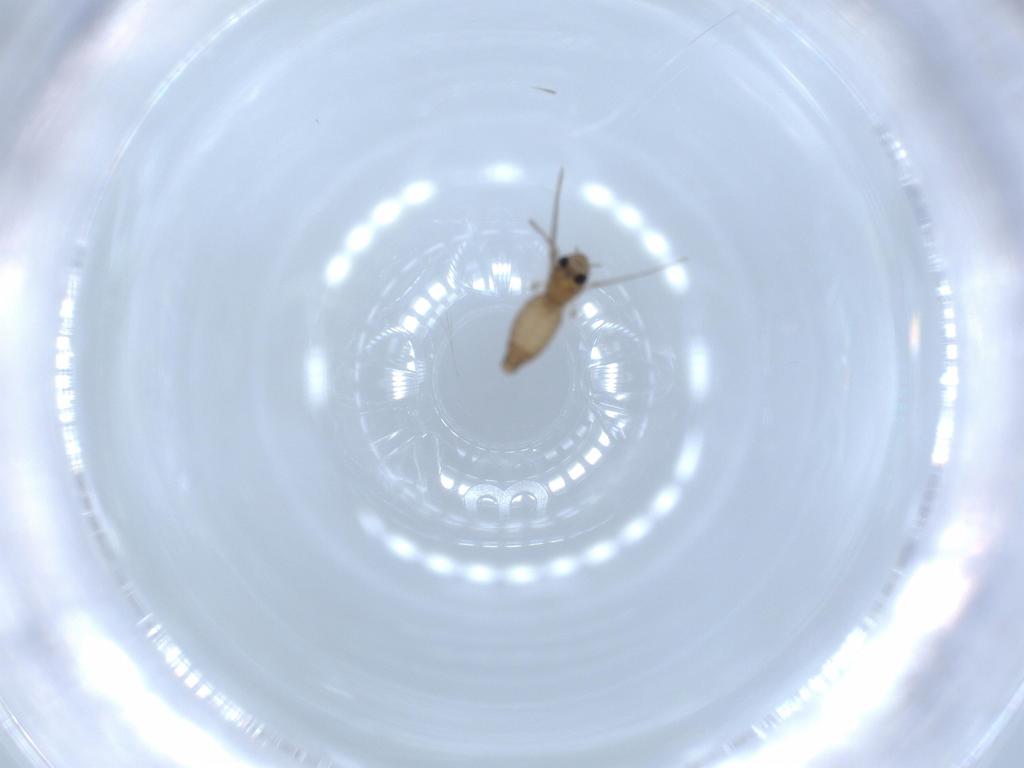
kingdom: Animalia
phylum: Arthropoda
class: Insecta
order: Diptera
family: Chironomidae
